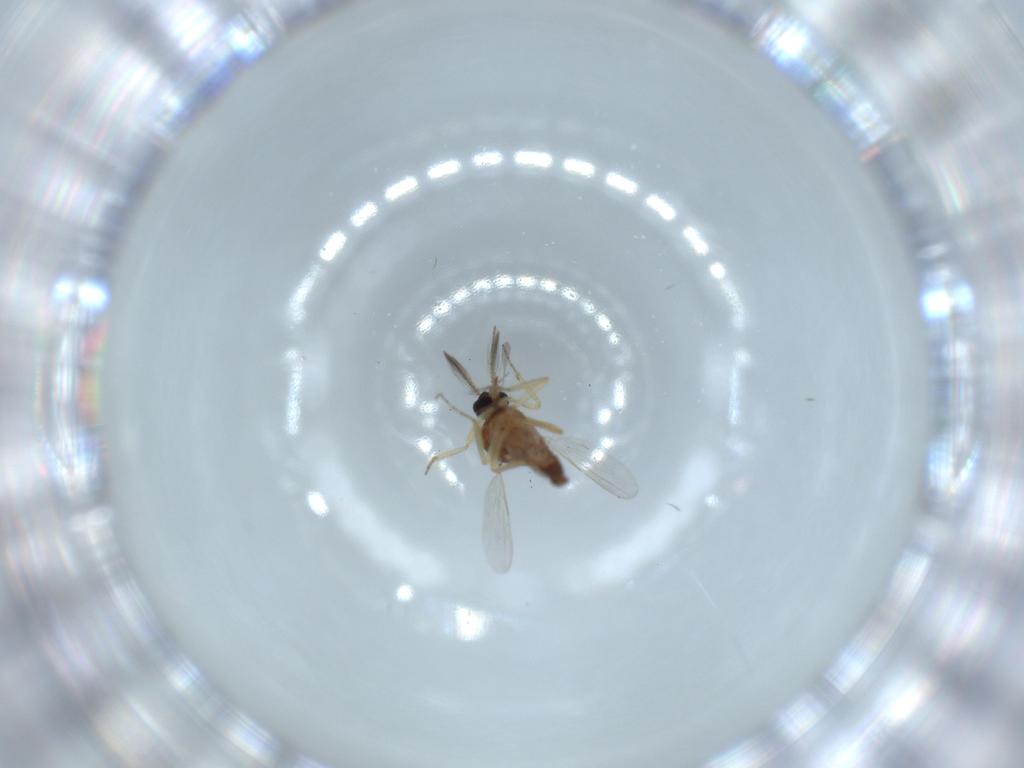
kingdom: Animalia
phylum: Arthropoda
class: Insecta
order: Diptera
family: Ceratopogonidae
